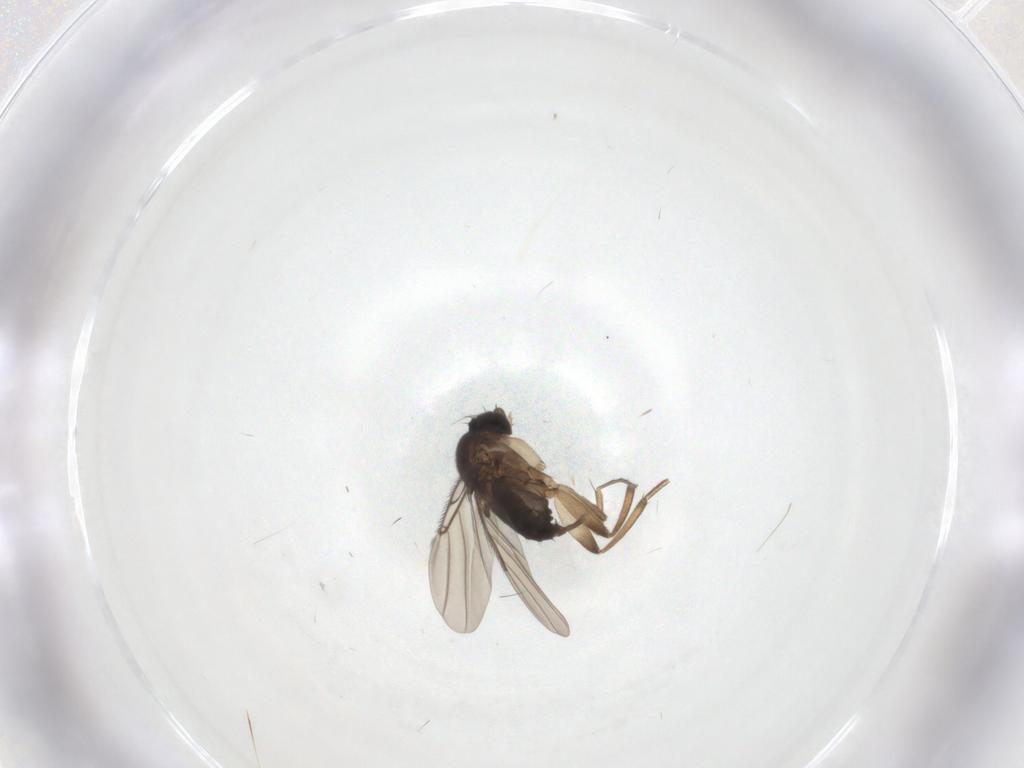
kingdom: Animalia
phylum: Arthropoda
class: Insecta
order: Diptera
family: Phoridae
